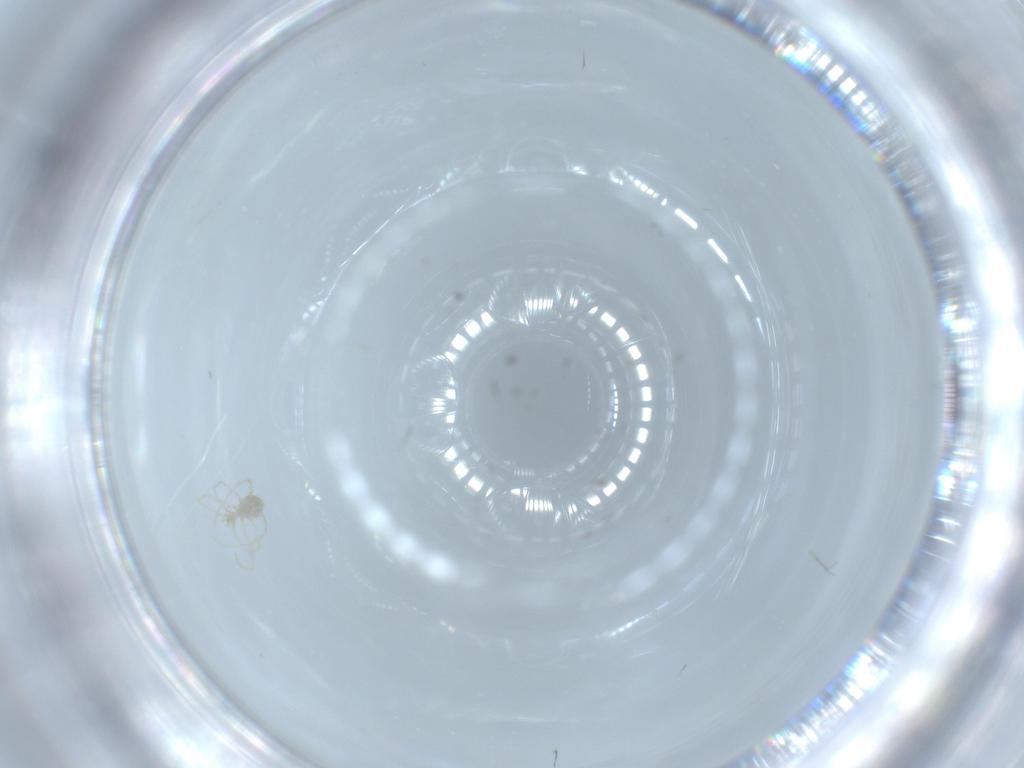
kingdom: Animalia
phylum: Arthropoda
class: Arachnida
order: Trombidiformes
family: Erythraeidae
